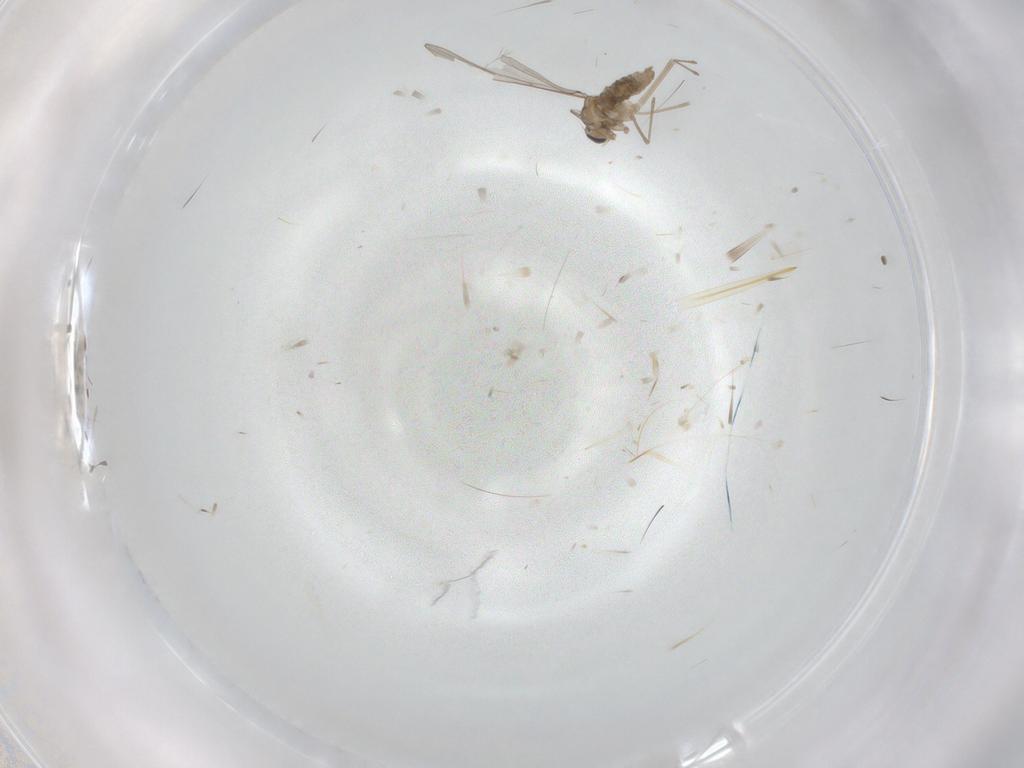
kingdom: Animalia
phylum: Arthropoda
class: Insecta
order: Diptera
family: Cecidomyiidae
